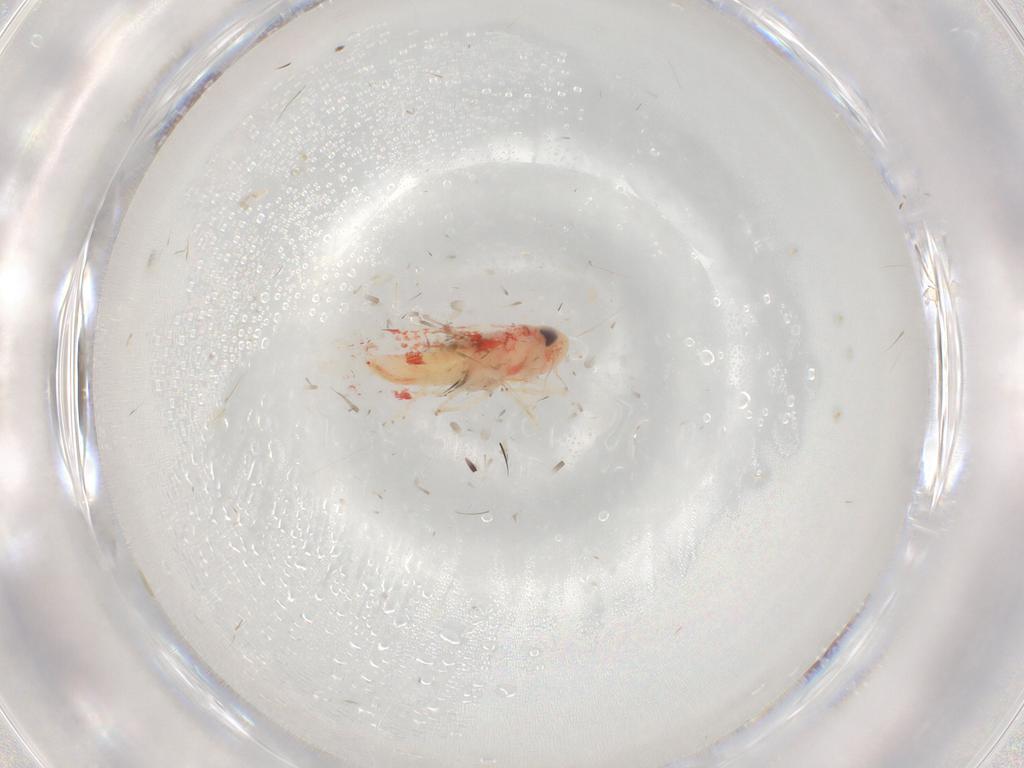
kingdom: Animalia
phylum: Arthropoda
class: Insecta
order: Hemiptera
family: Cicadellidae
